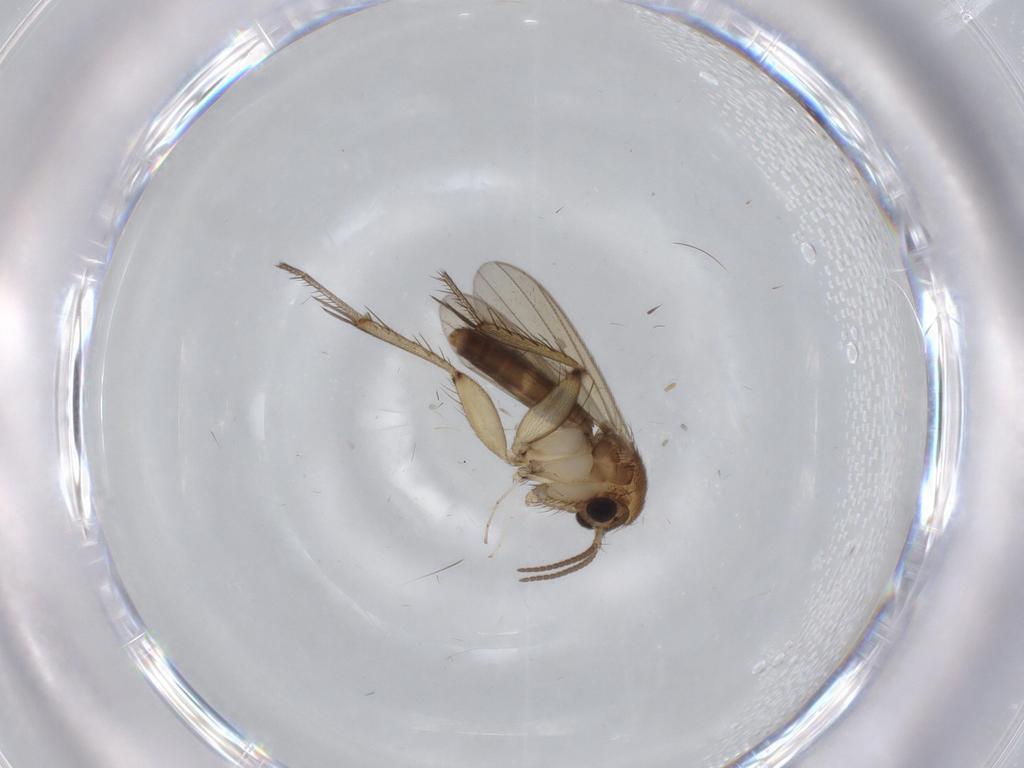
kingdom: Animalia
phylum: Arthropoda
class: Insecta
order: Diptera
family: Mycetophilidae
